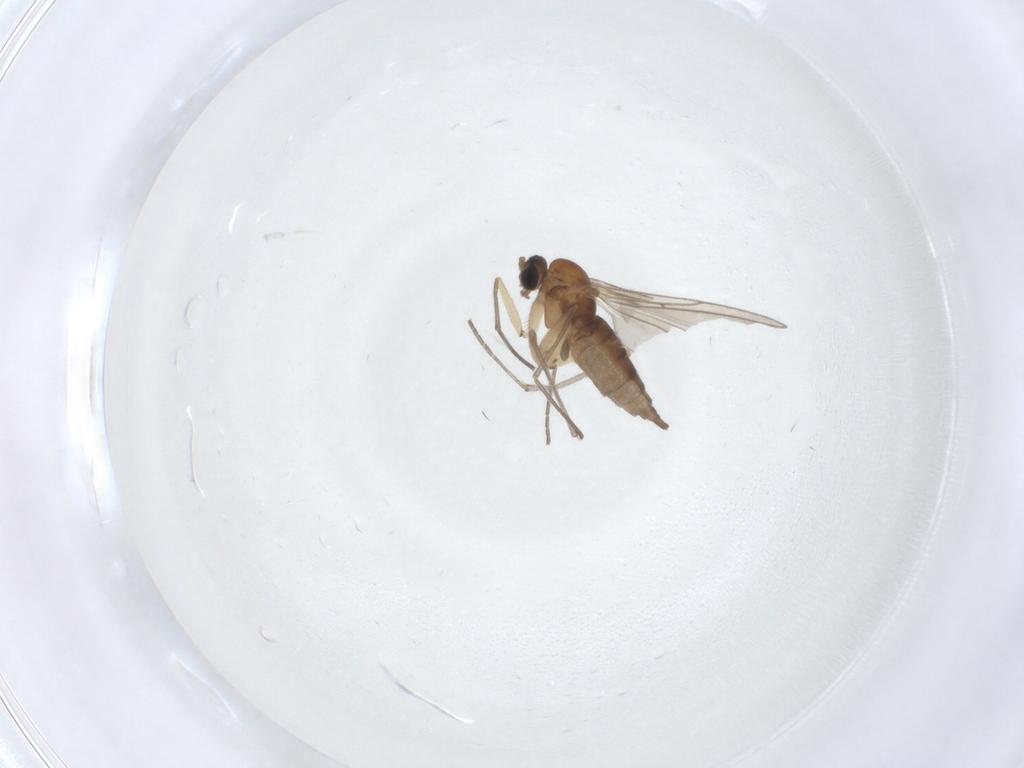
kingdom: Animalia
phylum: Arthropoda
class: Insecta
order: Diptera
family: Sciaridae
